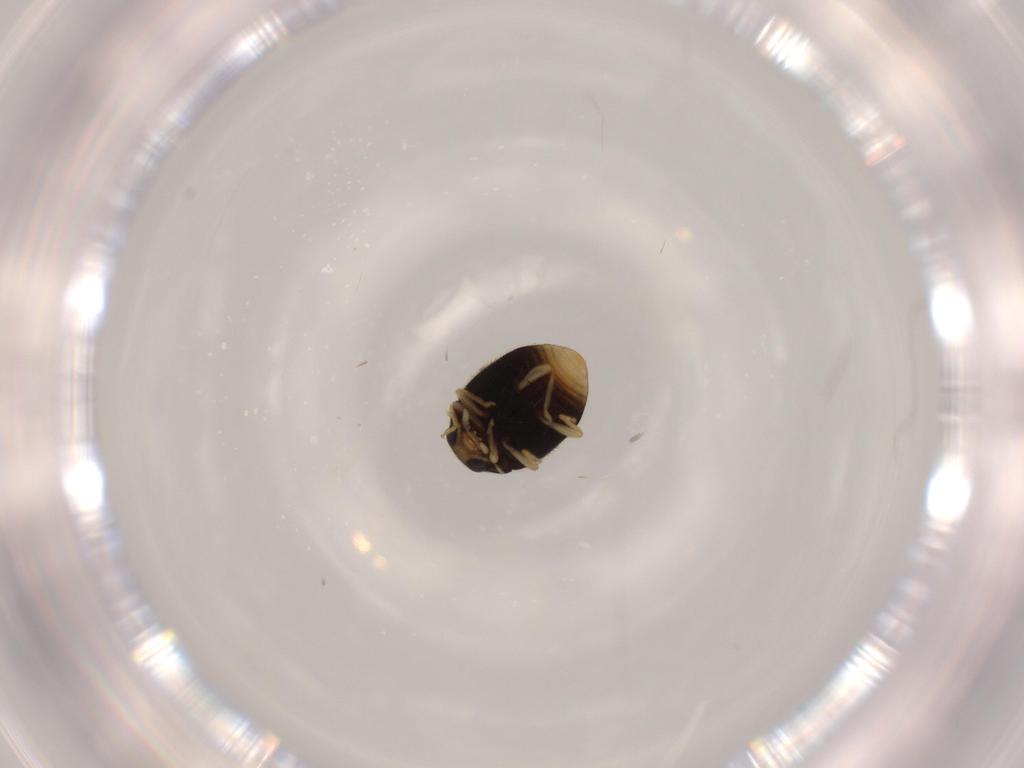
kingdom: Animalia
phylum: Arthropoda
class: Insecta
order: Coleoptera
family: Coccinellidae
